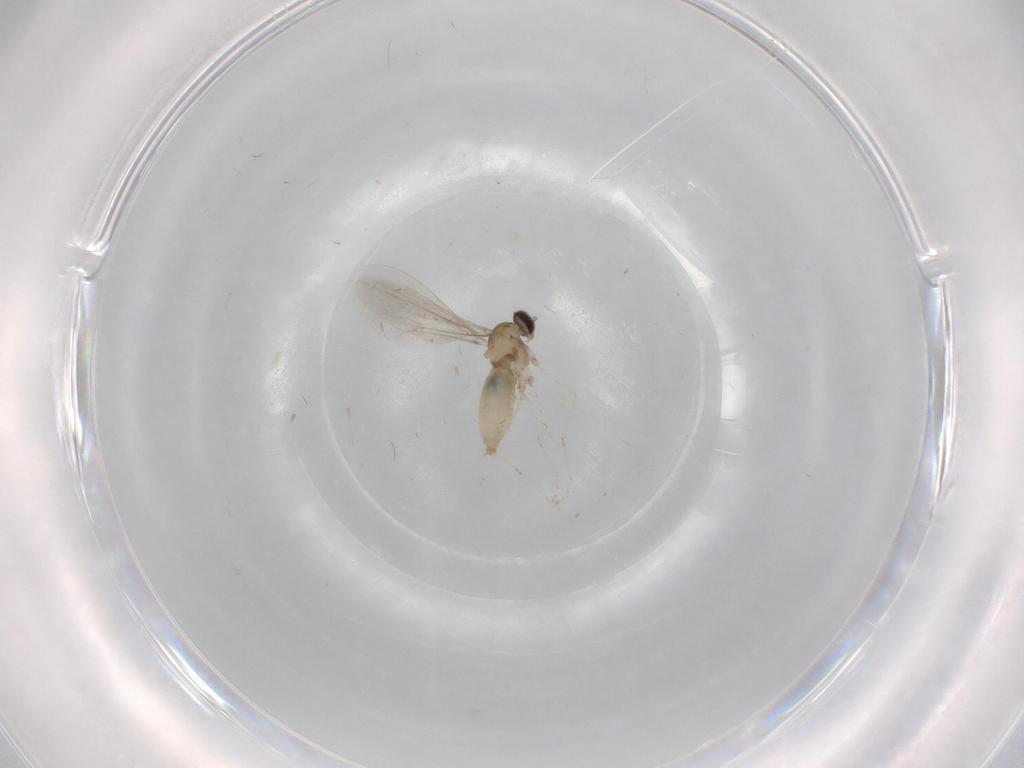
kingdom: Animalia
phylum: Arthropoda
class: Insecta
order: Diptera
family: Cecidomyiidae
